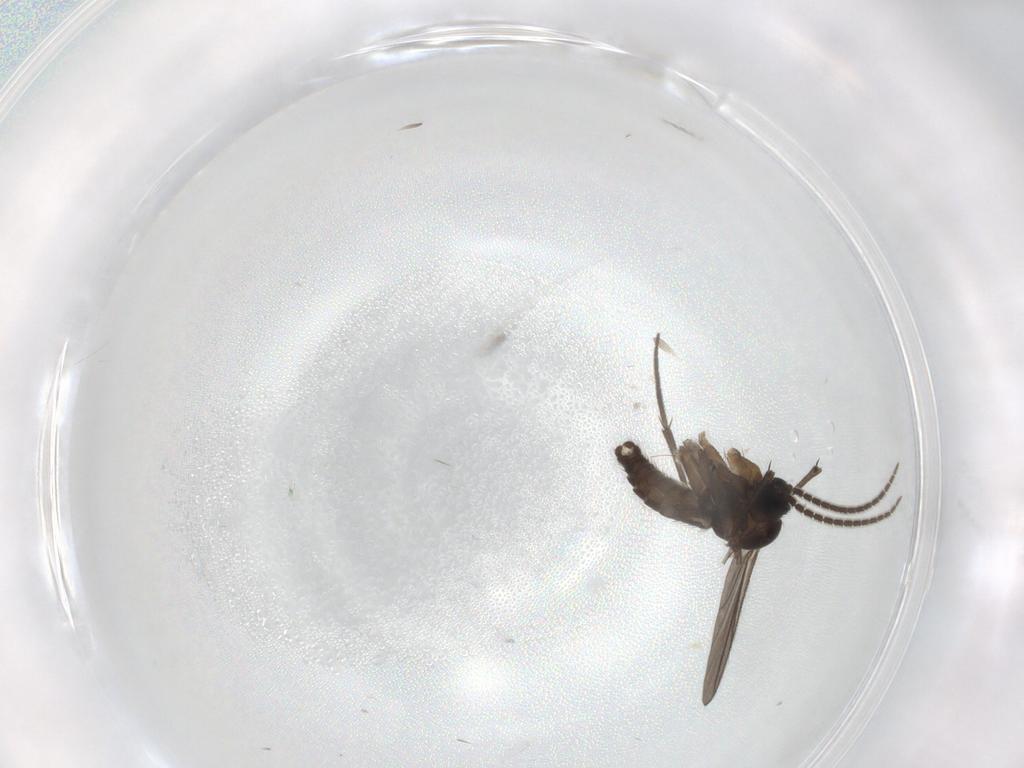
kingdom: Animalia
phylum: Arthropoda
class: Insecta
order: Diptera
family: Sciaridae
